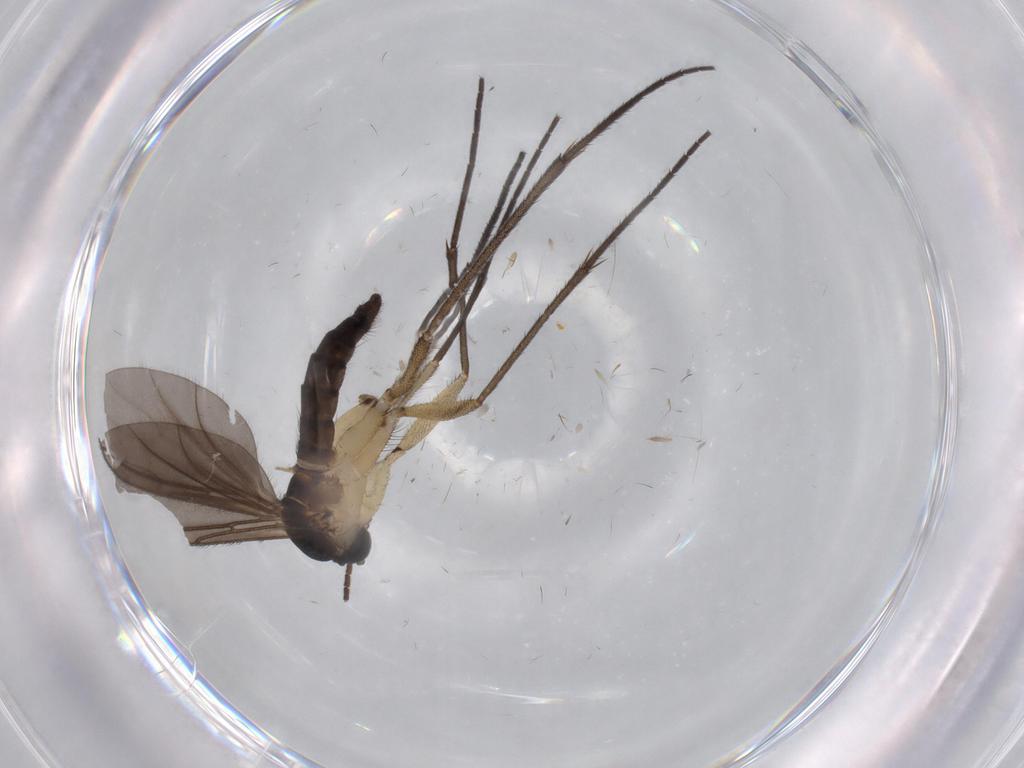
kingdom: Animalia
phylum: Arthropoda
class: Insecta
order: Diptera
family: Sciaridae
